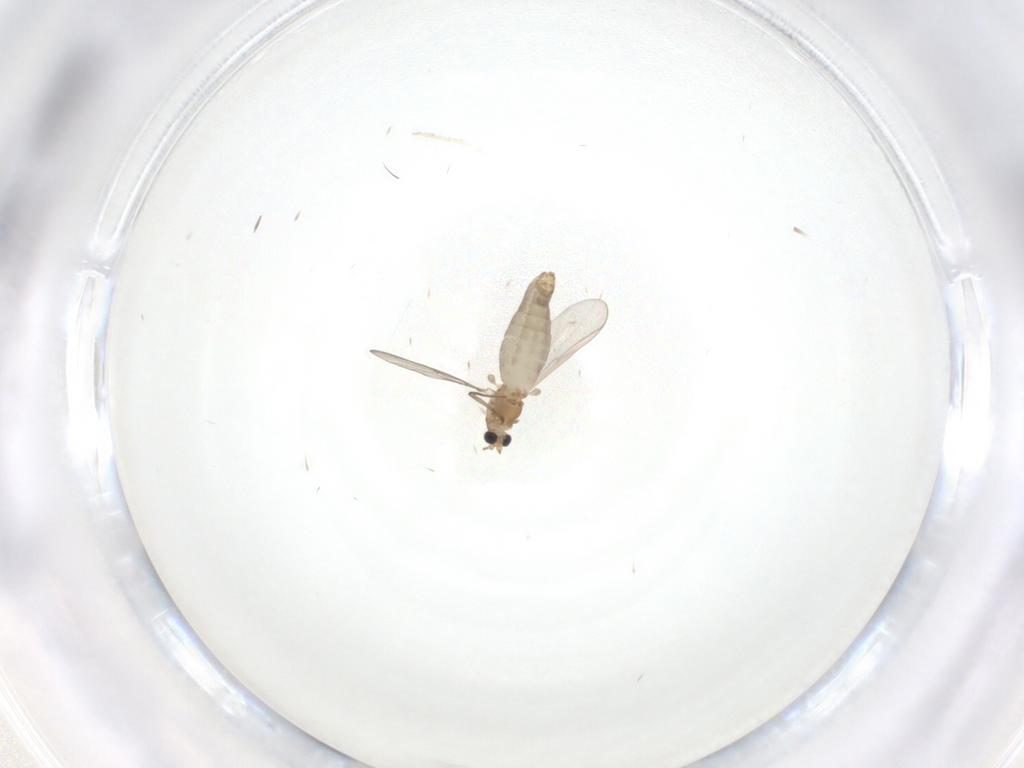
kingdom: Animalia
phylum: Arthropoda
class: Insecta
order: Diptera
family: Chironomidae
